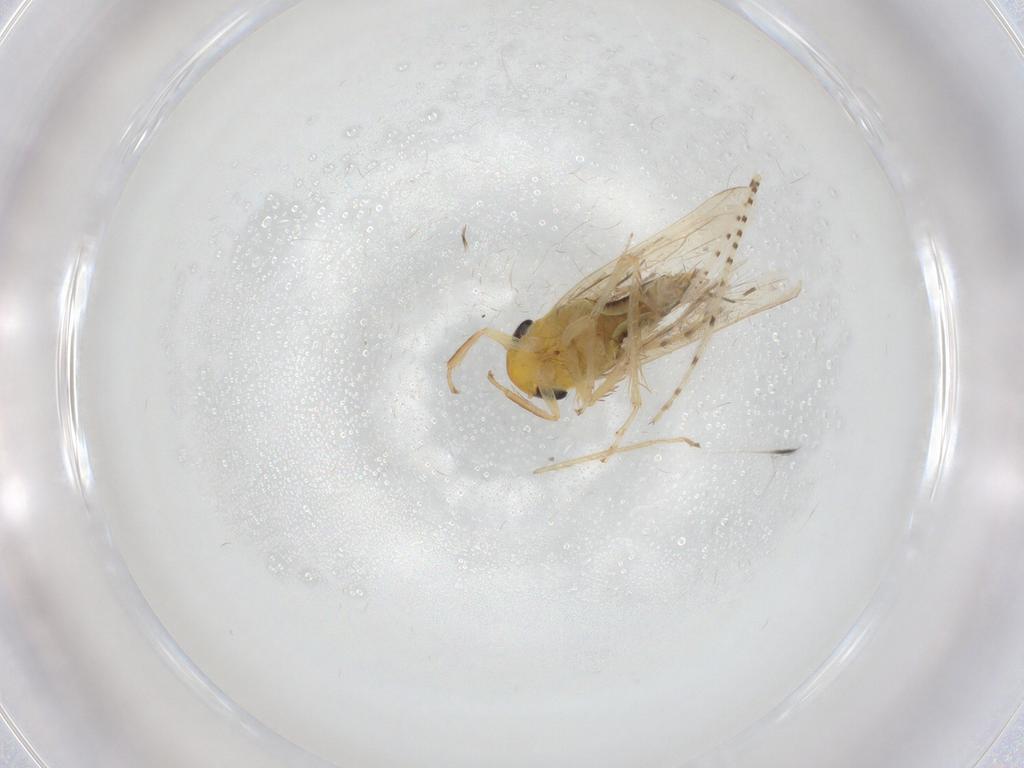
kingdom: Animalia
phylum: Arthropoda
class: Insecta
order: Hemiptera
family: Cicadellidae
